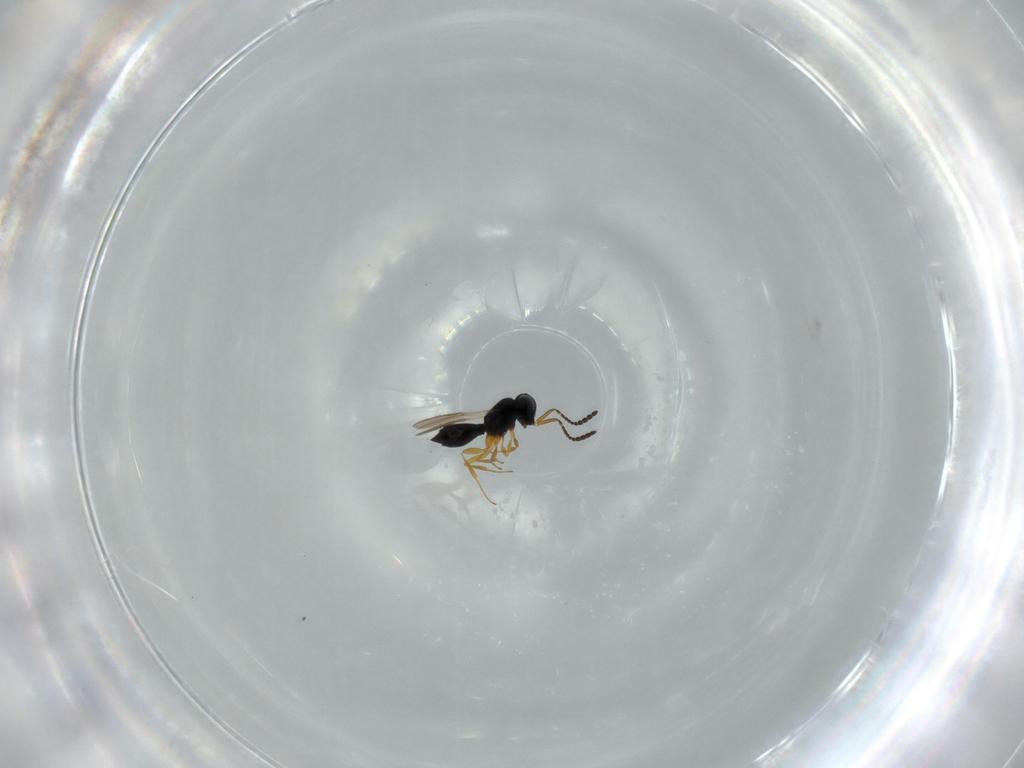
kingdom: Animalia
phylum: Arthropoda
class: Insecta
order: Hymenoptera
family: Scelionidae
